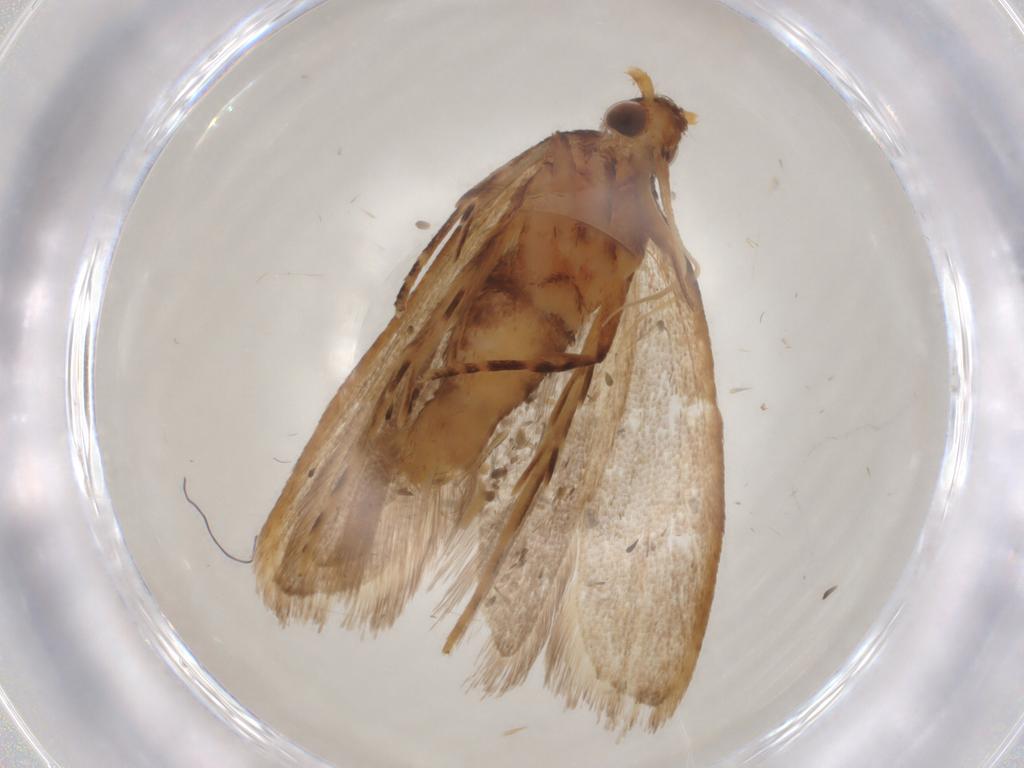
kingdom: Animalia
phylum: Arthropoda
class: Insecta
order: Lepidoptera
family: Lecithoceridae
